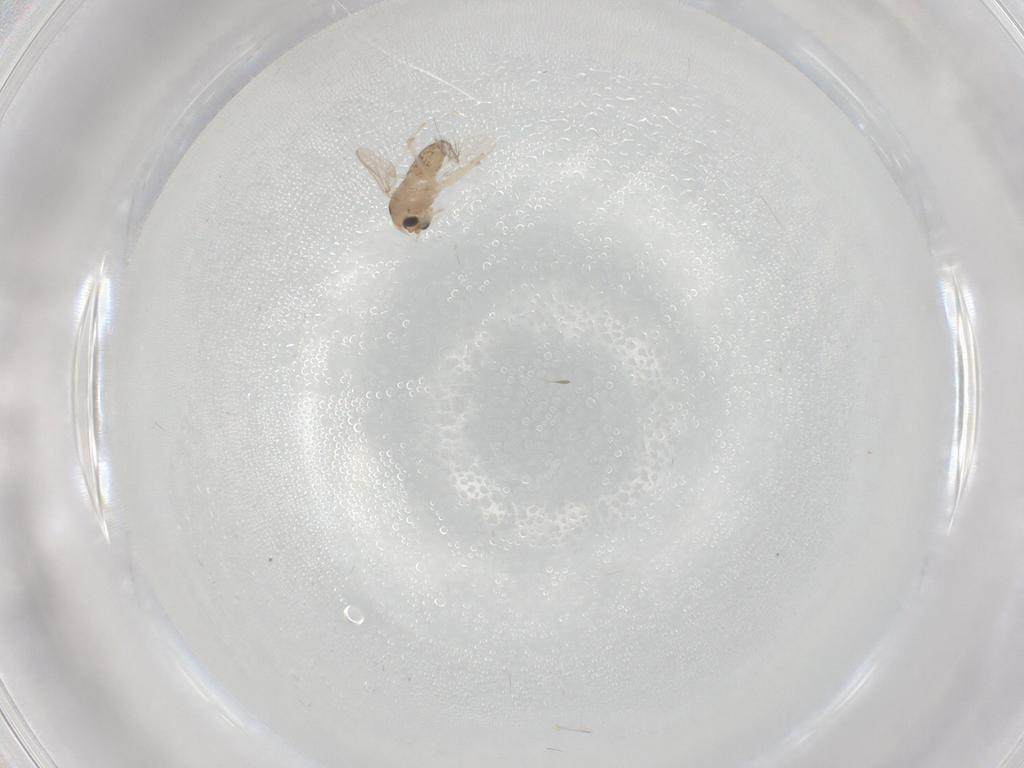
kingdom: Animalia
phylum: Arthropoda
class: Insecta
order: Diptera
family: Chironomidae
